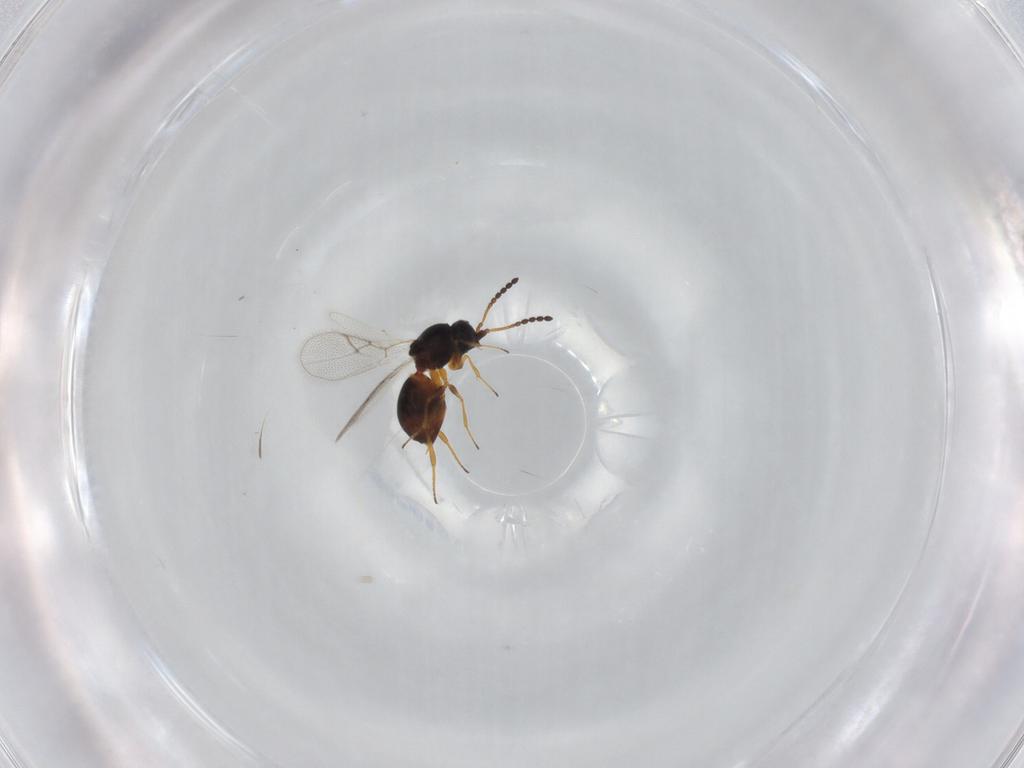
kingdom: Animalia
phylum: Arthropoda
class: Insecta
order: Hymenoptera
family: Figitidae
